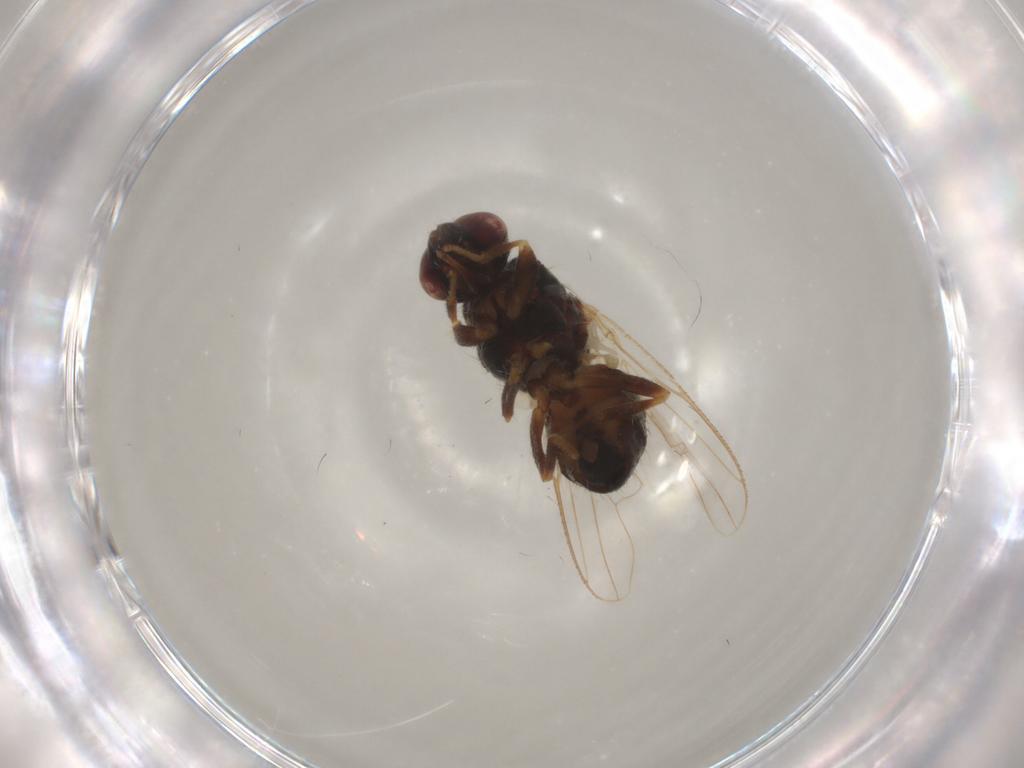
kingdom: Animalia
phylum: Arthropoda
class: Insecta
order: Diptera
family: Muscidae
